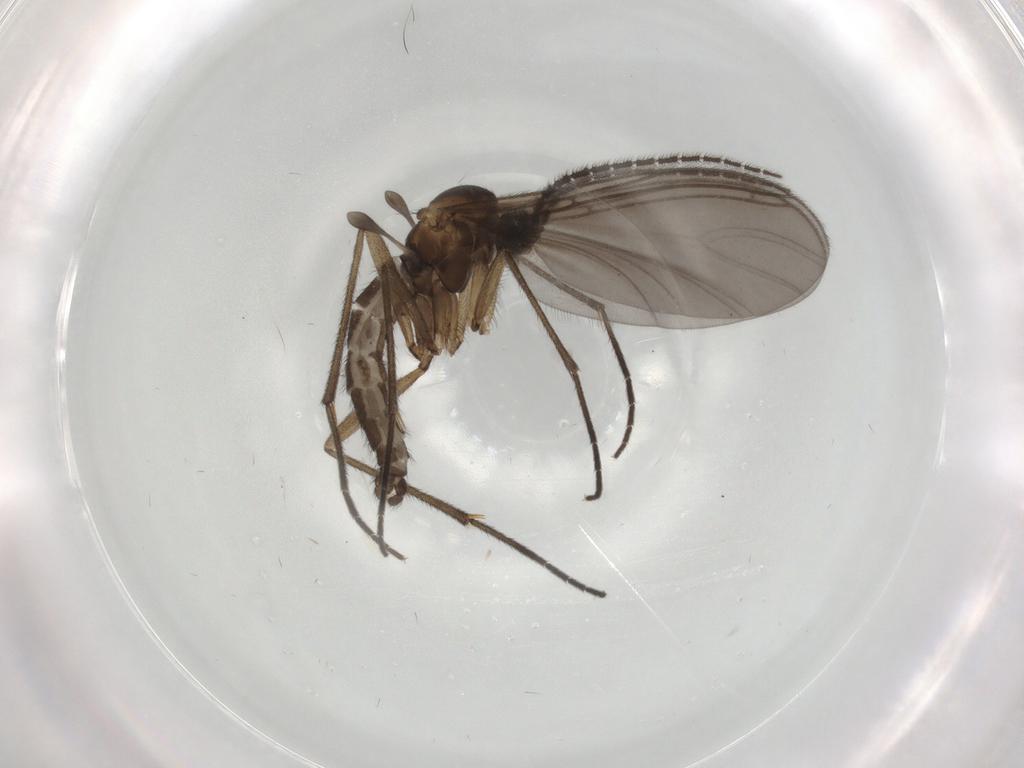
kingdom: Animalia
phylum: Arthropoda
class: Insecta
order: Diptera
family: Sciaridae
